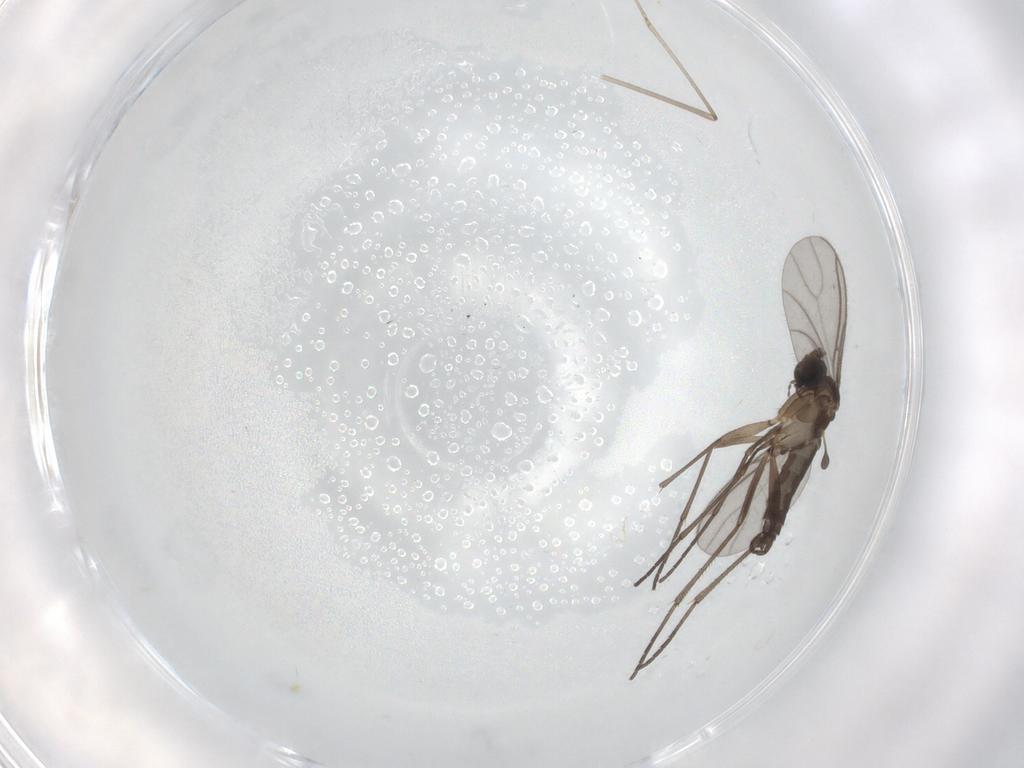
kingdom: Animalia
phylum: Arthropoda
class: Insecta
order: Diptera
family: Sciaridae
